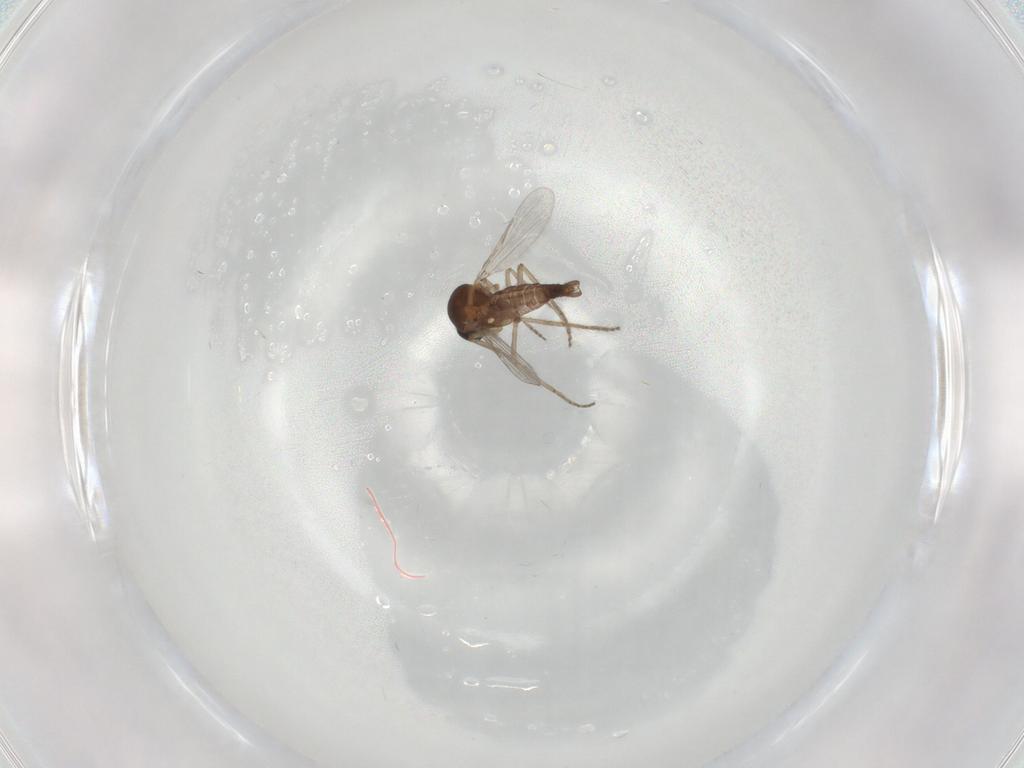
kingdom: Animalia
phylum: Arthropoda
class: Insecta
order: Diptera
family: Ceratopogonidae
